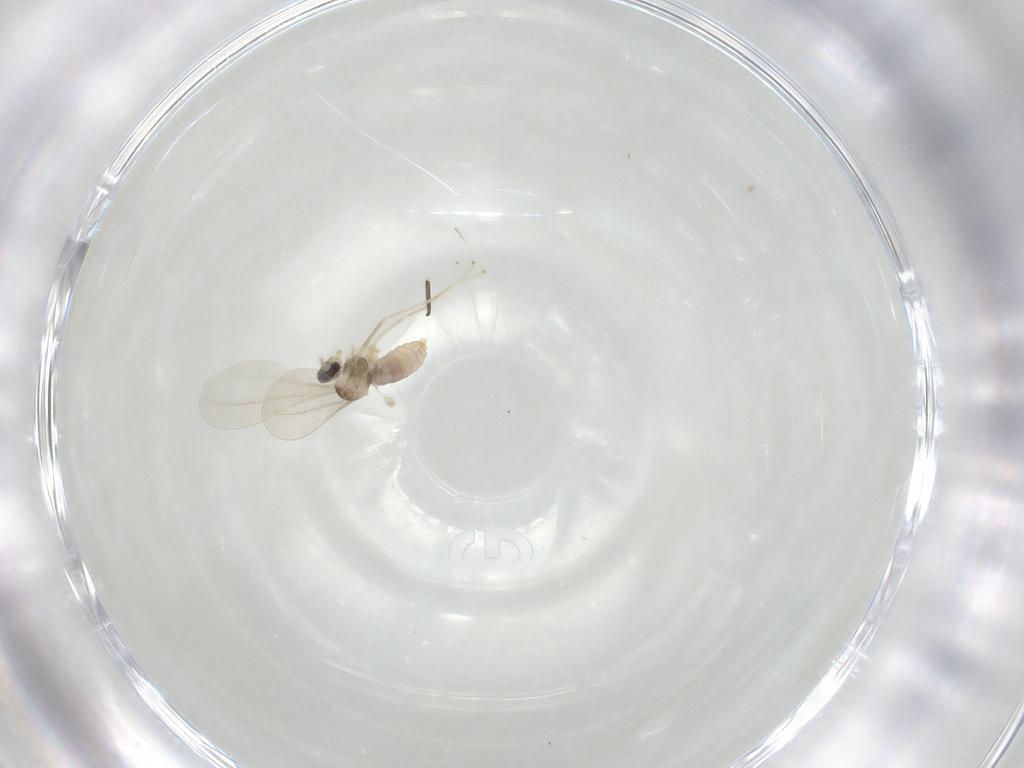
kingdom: Animalia
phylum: Arthropoda
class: Insecta
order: Diptera
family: Cecidomyiidae
